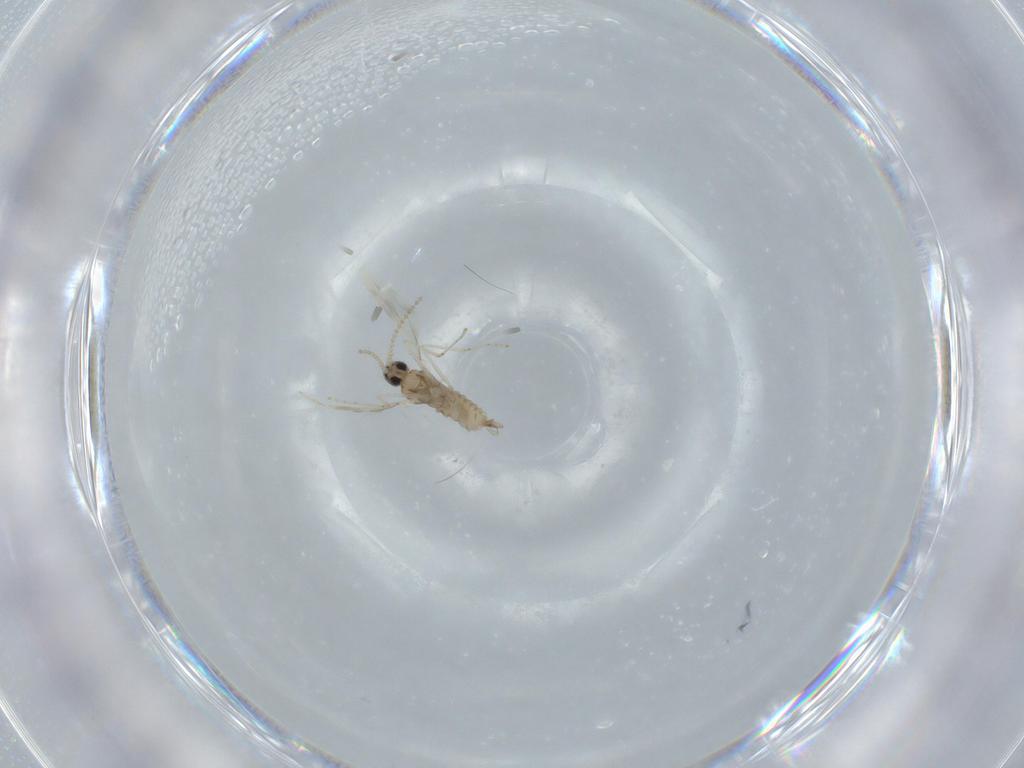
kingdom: Animalia
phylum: Arthropoda
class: Insecta
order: Diptera
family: Cecidomyiidae
